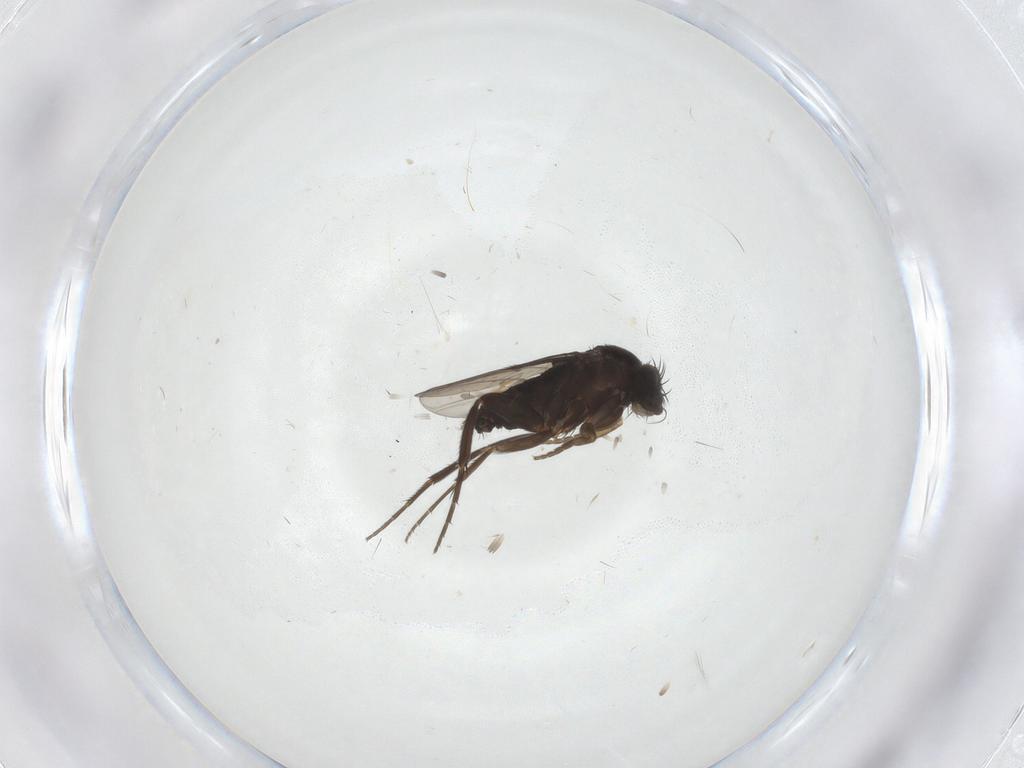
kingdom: Animalia
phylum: Arthropoda
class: Insecta
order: Diptera
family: Phoridae
